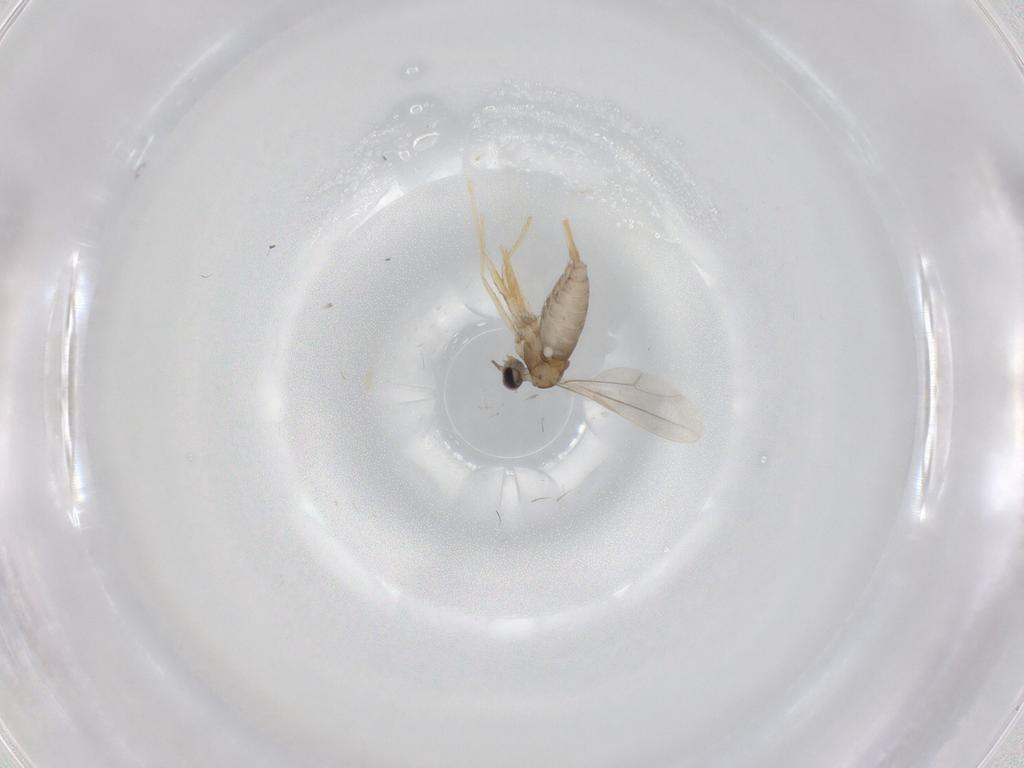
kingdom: Animalia
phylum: Arthropoda
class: Insecta
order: Diptera
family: Cecidomyiidae
